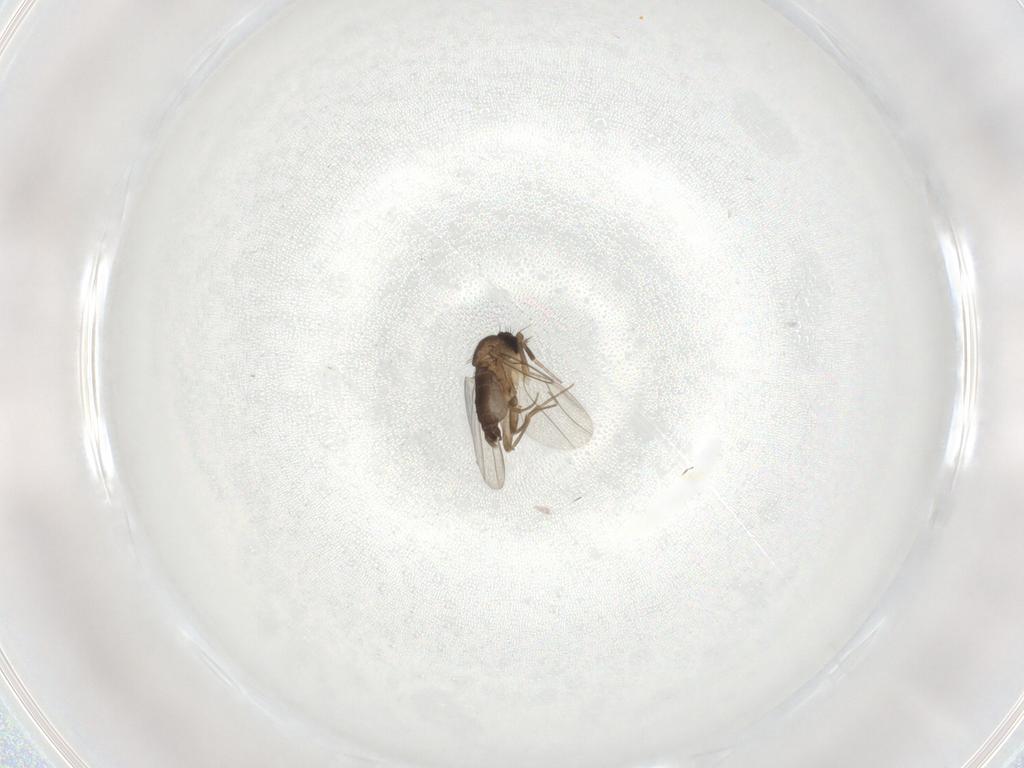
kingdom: Animalia
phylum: Arthropoda
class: Insecta
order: Diptera
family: Phoridae
